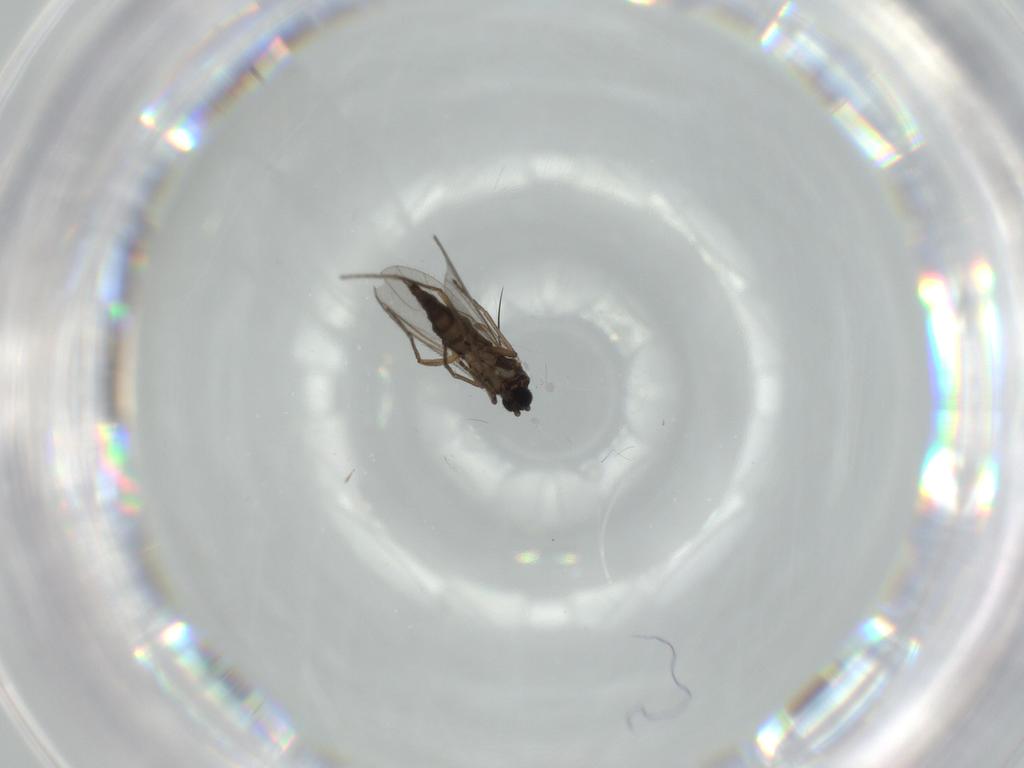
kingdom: Animalia
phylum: Arthropoda
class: Insecta
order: Diptera
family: Sciaridae
